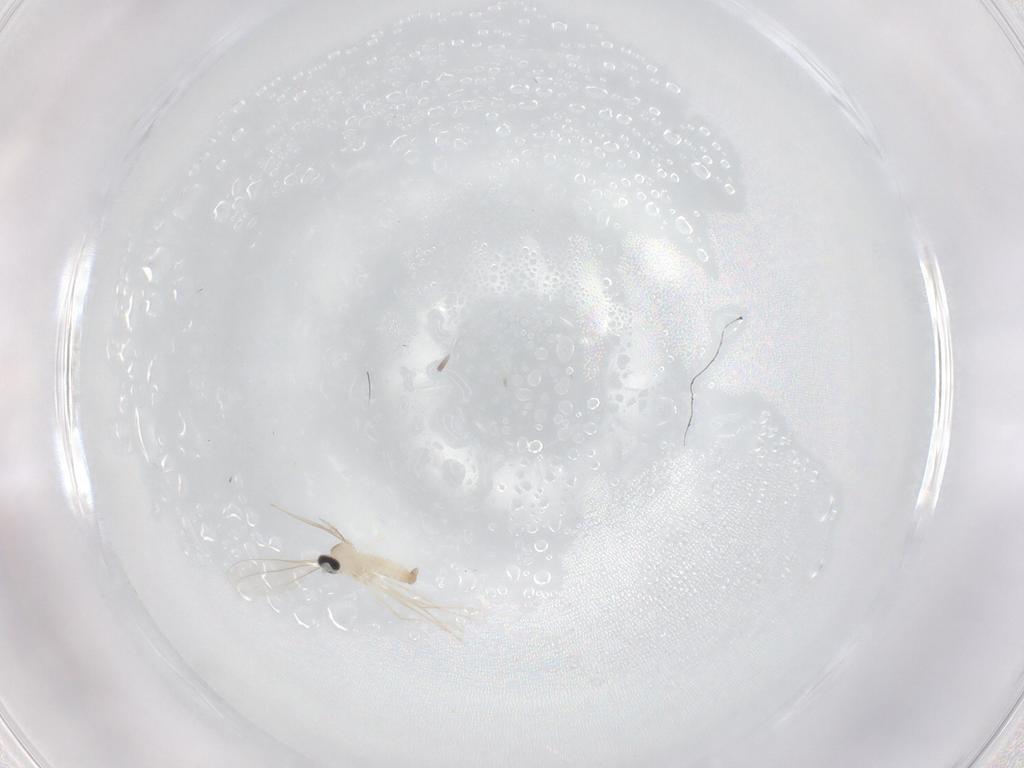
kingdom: Animalia
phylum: Arthropoda
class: Insecta
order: Diptera
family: Cecidomyiidae
